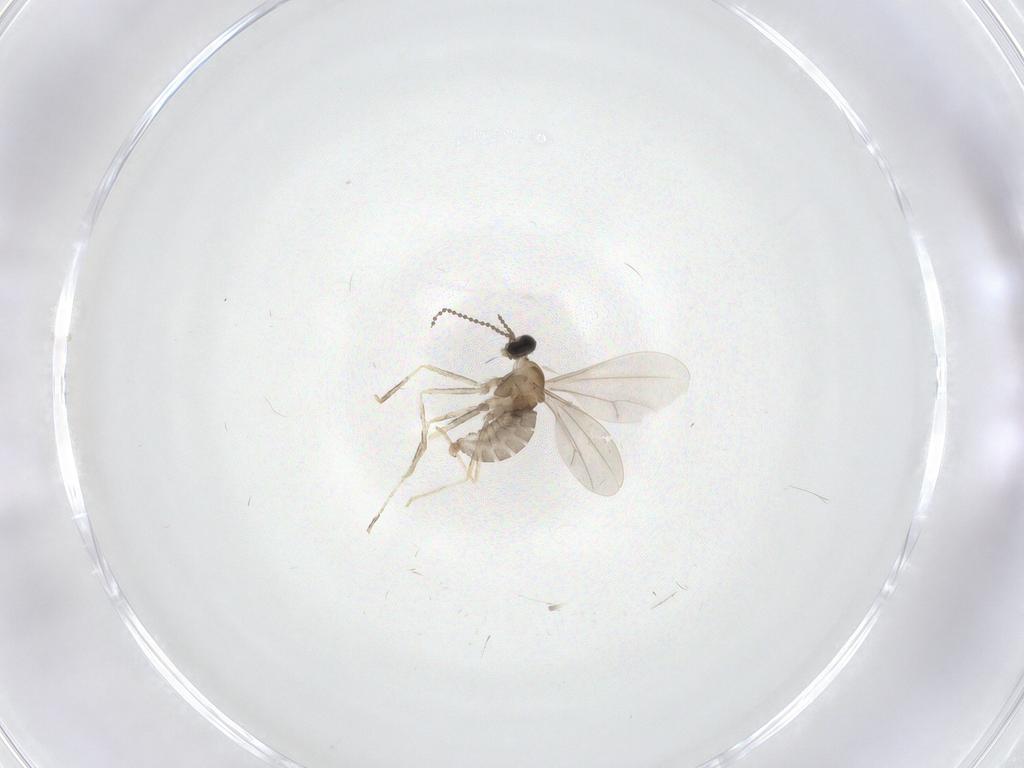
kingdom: Animalia
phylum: Arthropoda
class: Insecta
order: Diptera
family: Cecidomyiidae
